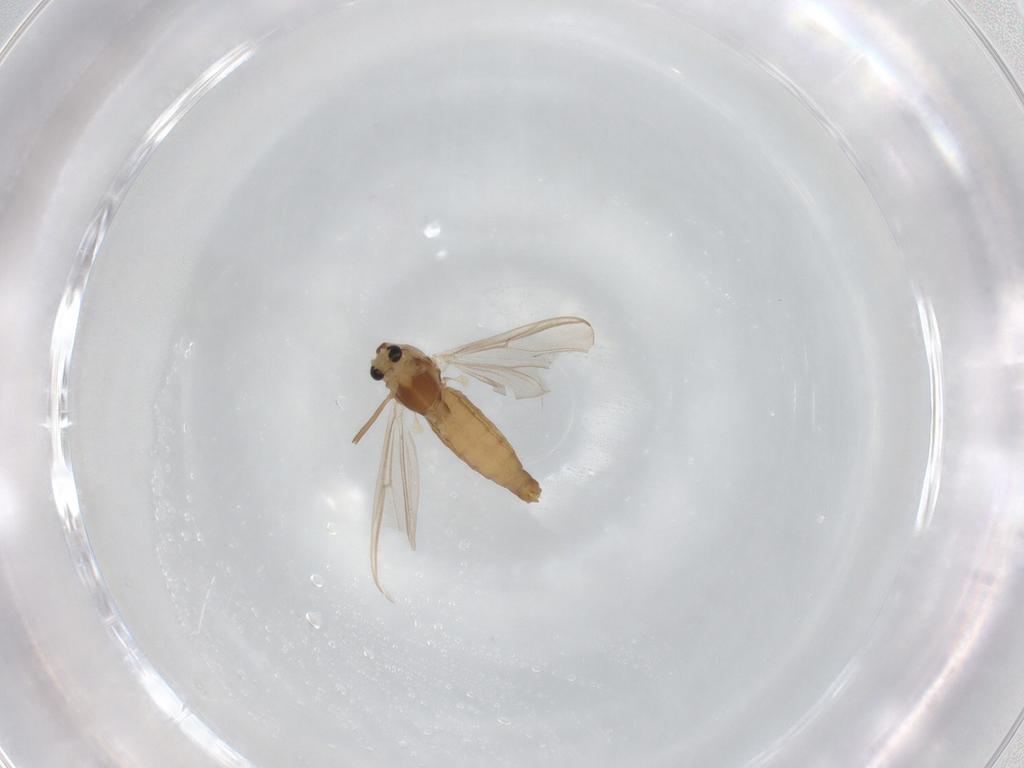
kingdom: Animalia
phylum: Arthropoda
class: Insecta
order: Diptera
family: Chironomidae
